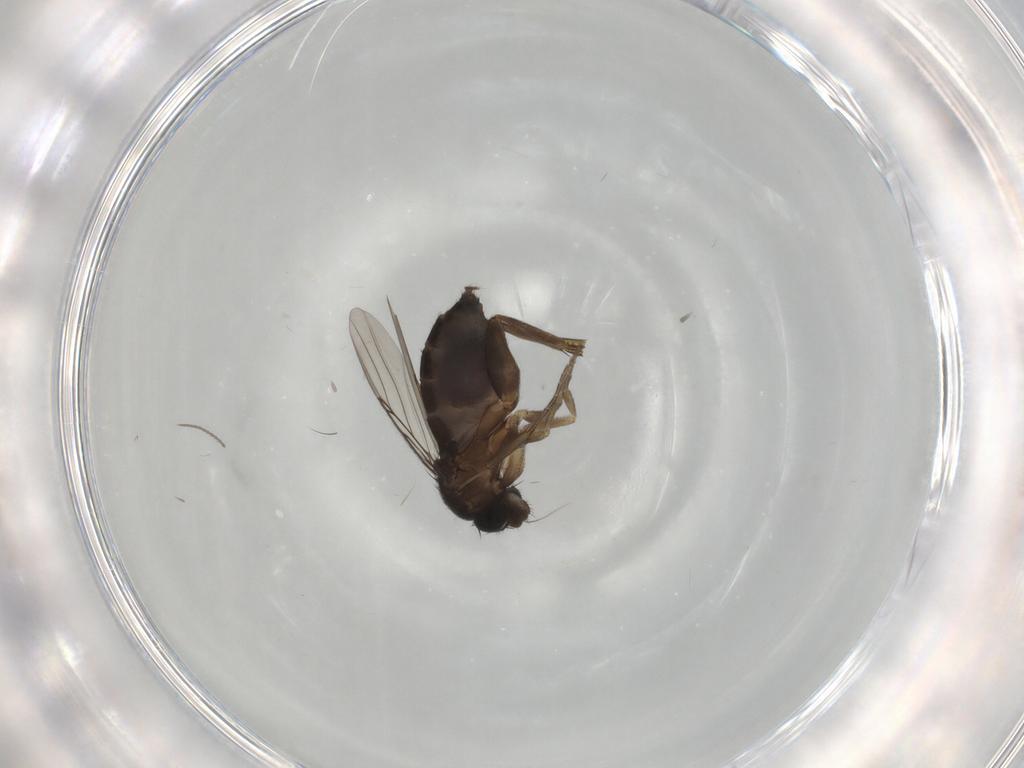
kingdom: Animalia
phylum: Arthropoda
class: Insecta
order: Diptera
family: Phoridae
